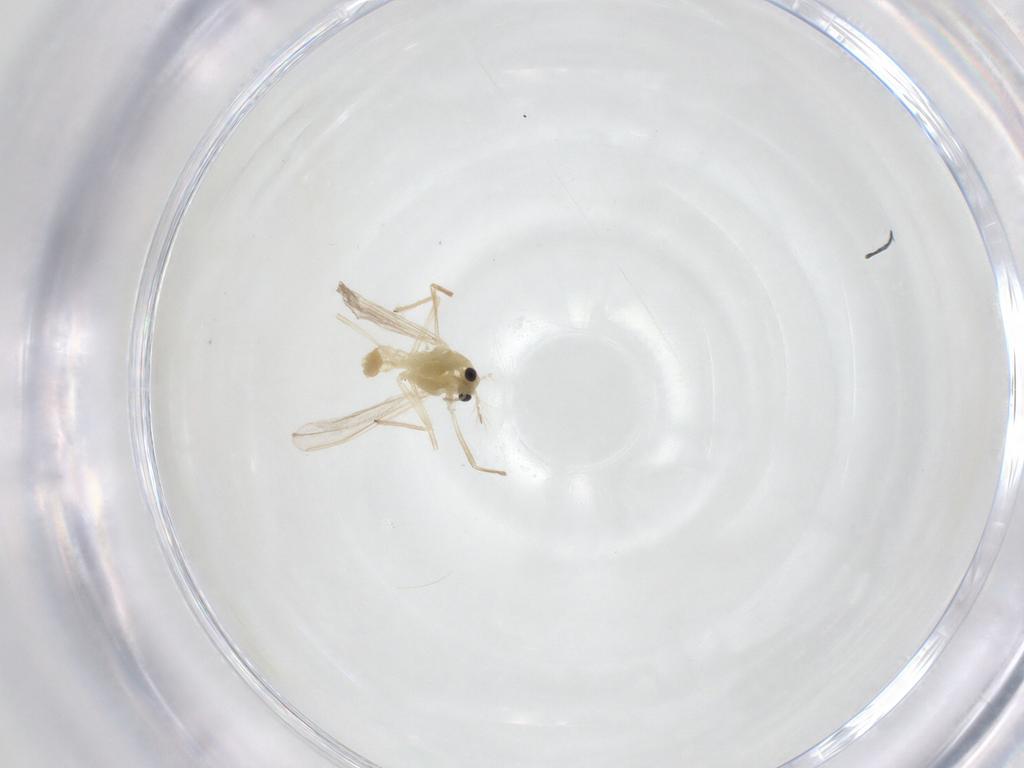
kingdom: Animalia
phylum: Arthropoda
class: Insecta
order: Diptera
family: Chironomidae
